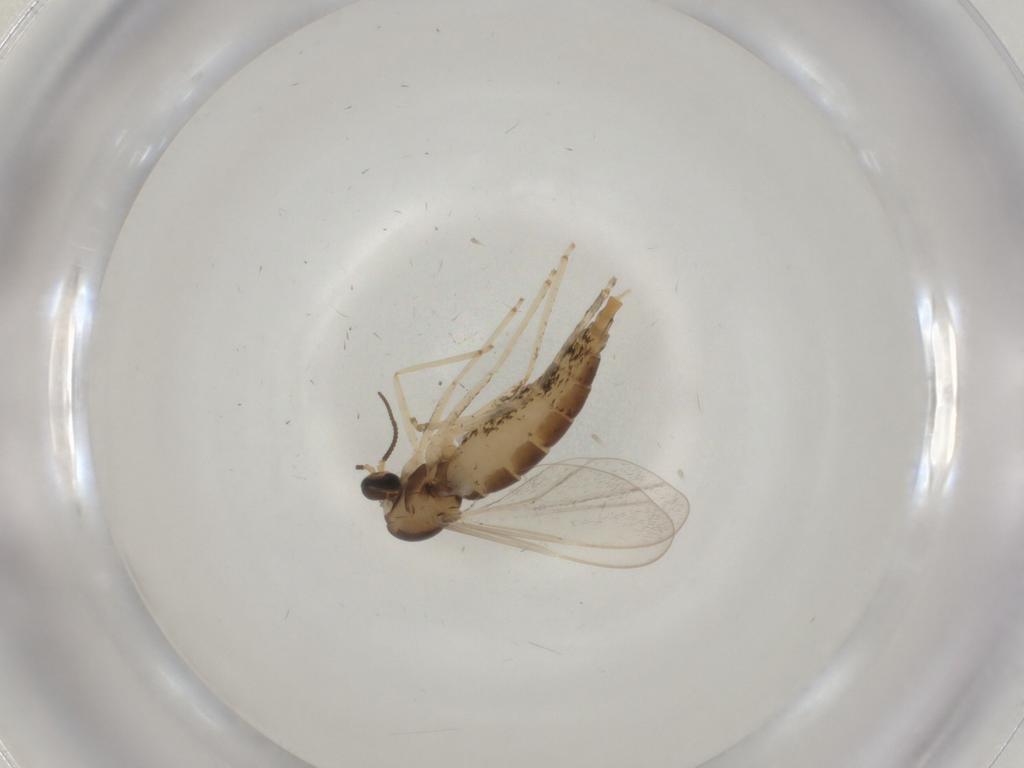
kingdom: Animalia
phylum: Arthropoda
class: Insecta
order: Diptera
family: Cecidomyiidae
